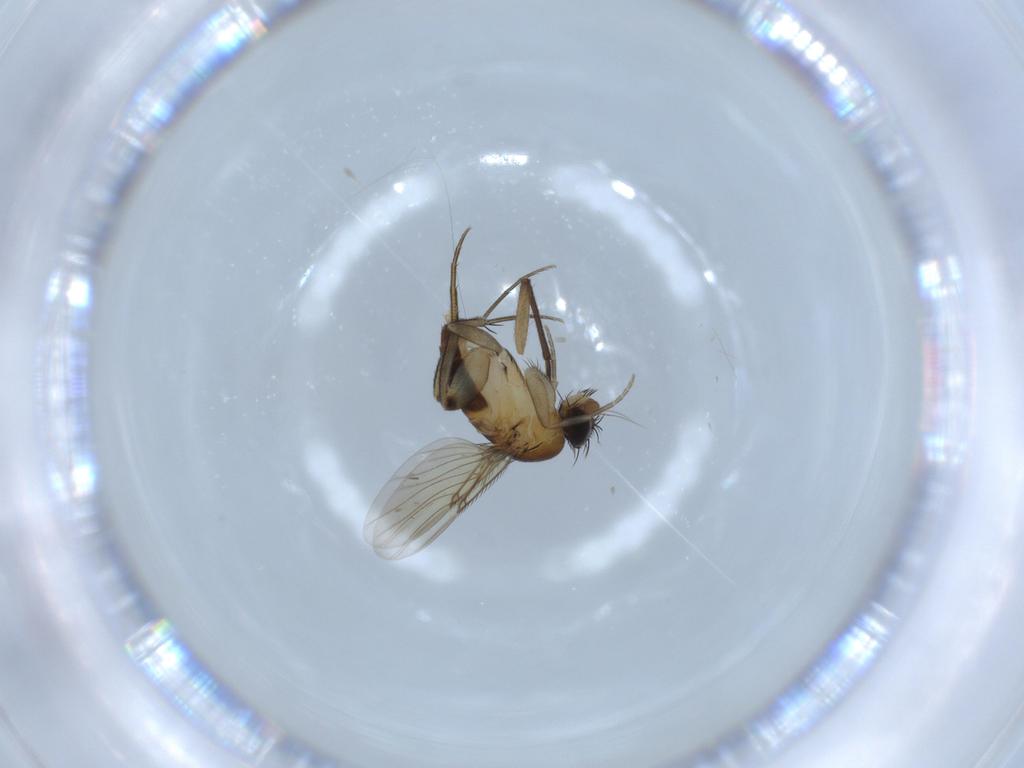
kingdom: Animalia
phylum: Arthropoda
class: Insecta
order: Diptera
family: Phoridae
